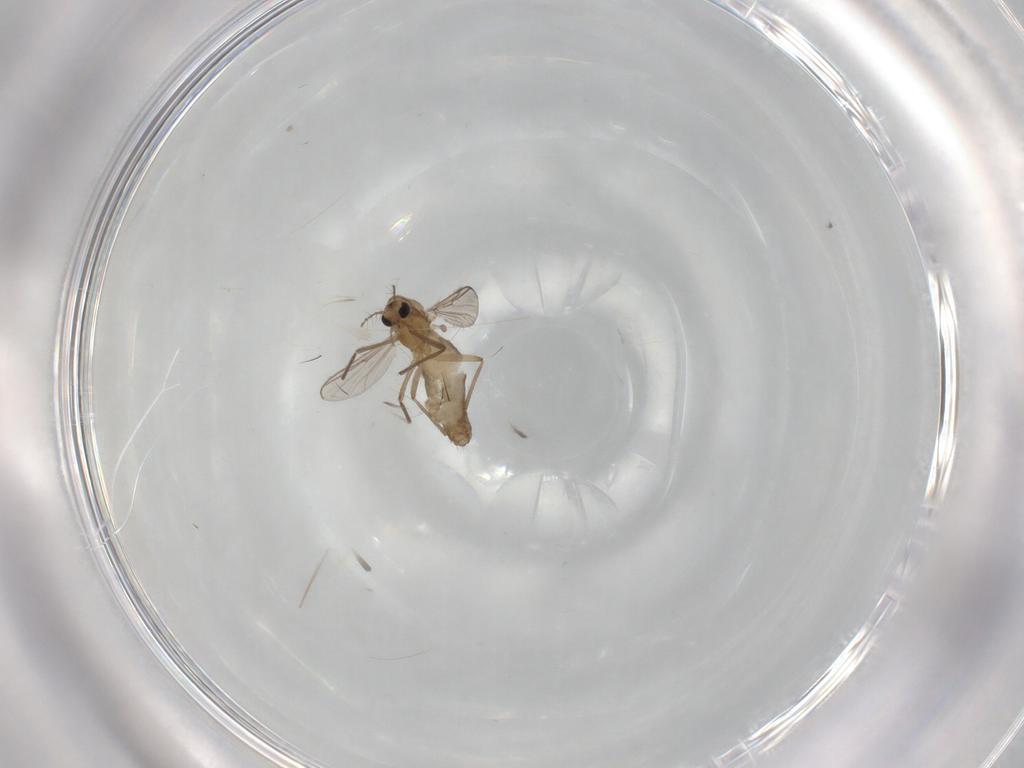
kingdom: Animalia
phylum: Arthropoda
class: Insecta
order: Diptera
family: Chironomidae
